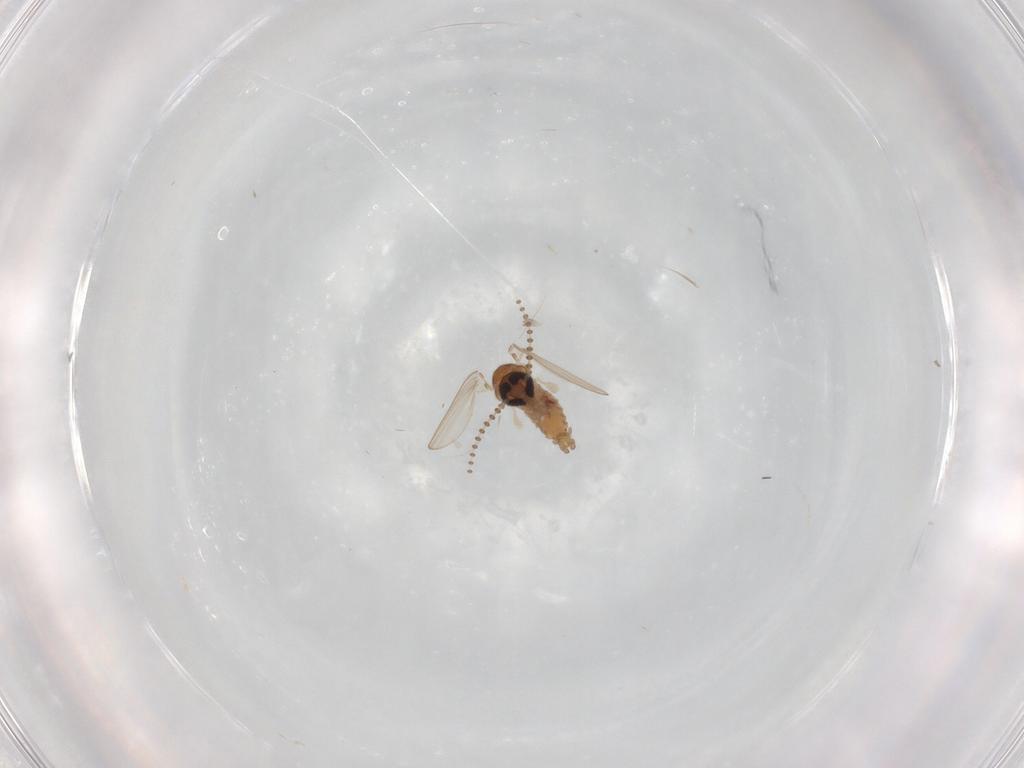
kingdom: Animalia
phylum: Arthropoda
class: Insecta
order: Diptera
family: Psychodidae
